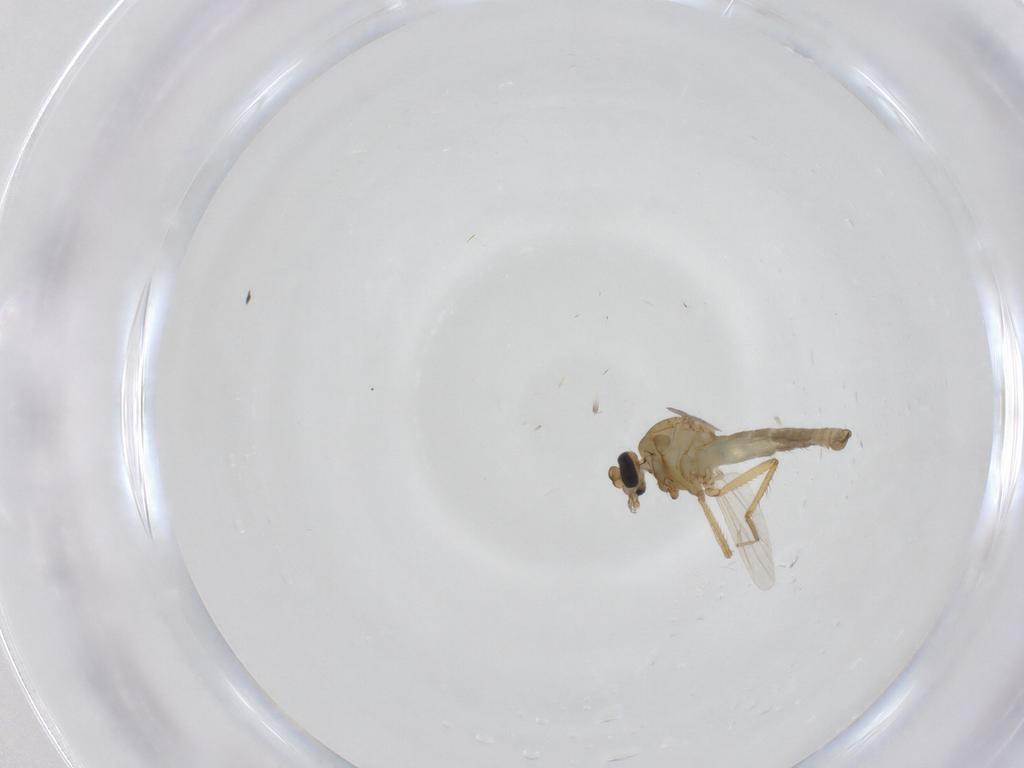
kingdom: Animalia
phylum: Arthropoda
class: Insecta
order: Diptera
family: Ceratopogonidae
